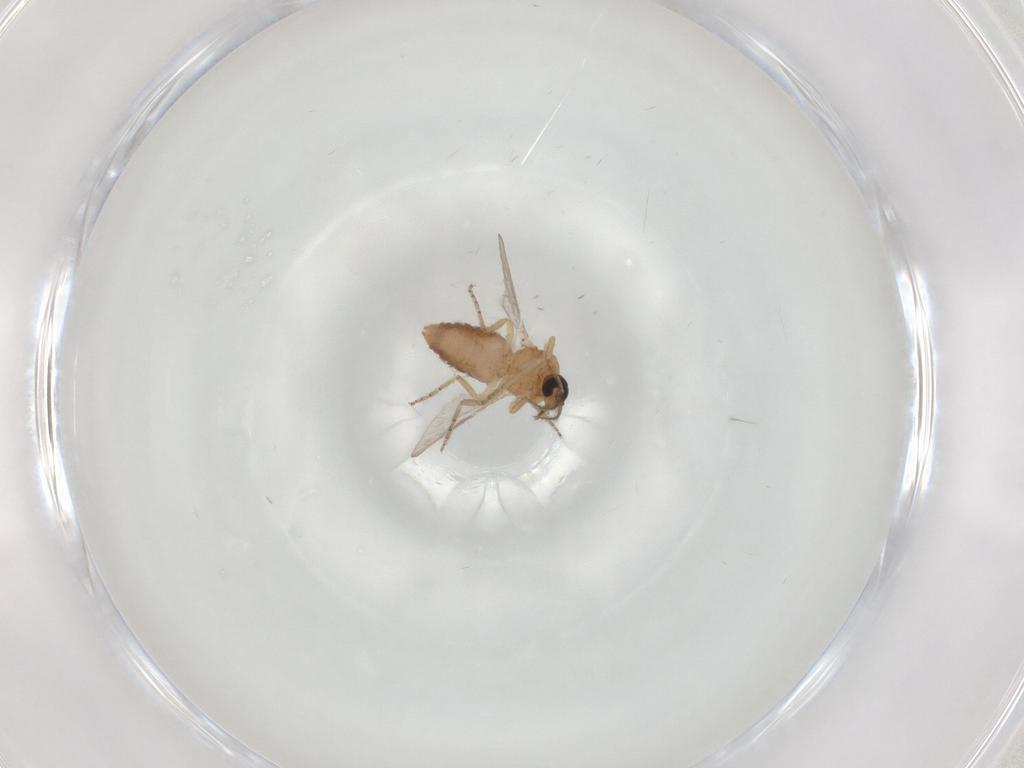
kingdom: Animalia
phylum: Arthropoda
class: Insecta
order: Diptera
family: Ceratopogonidae
